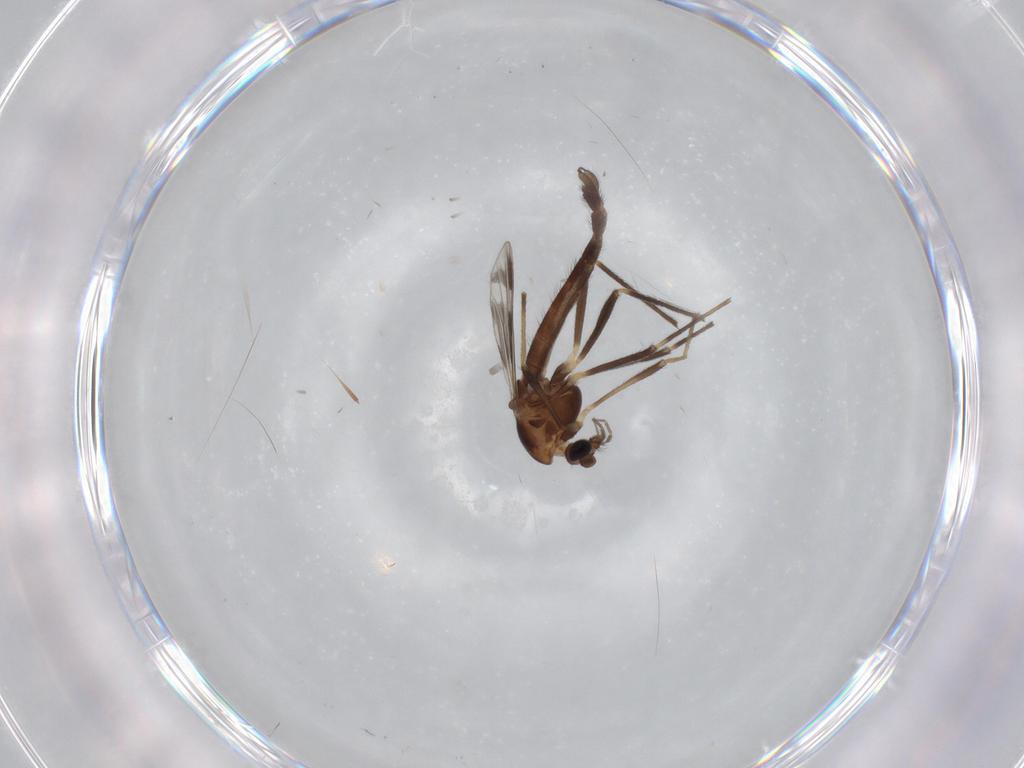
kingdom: Animalia
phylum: Arthropoda
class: Insecta
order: Diptera
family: Chironomidae
